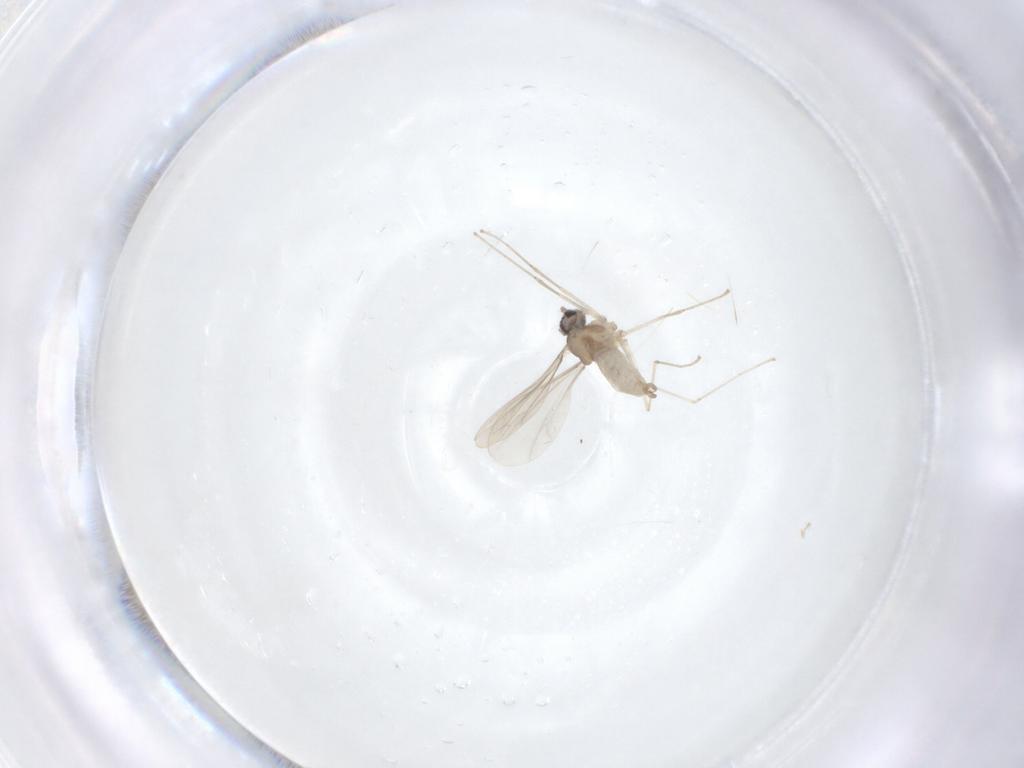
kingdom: Animalia
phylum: Arthropoda
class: Insecta
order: Diptera
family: Cecidomyiidae
